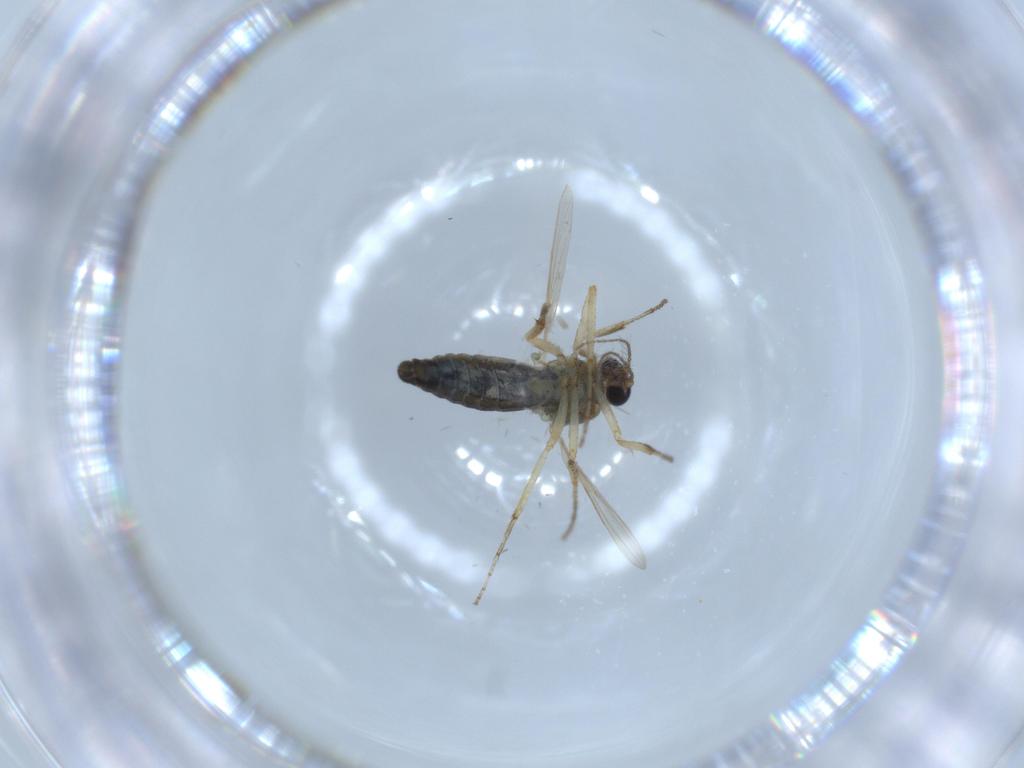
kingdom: Animalia
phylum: Arthropoda
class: Insecta
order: Diptera
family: Ceratopogonidae
